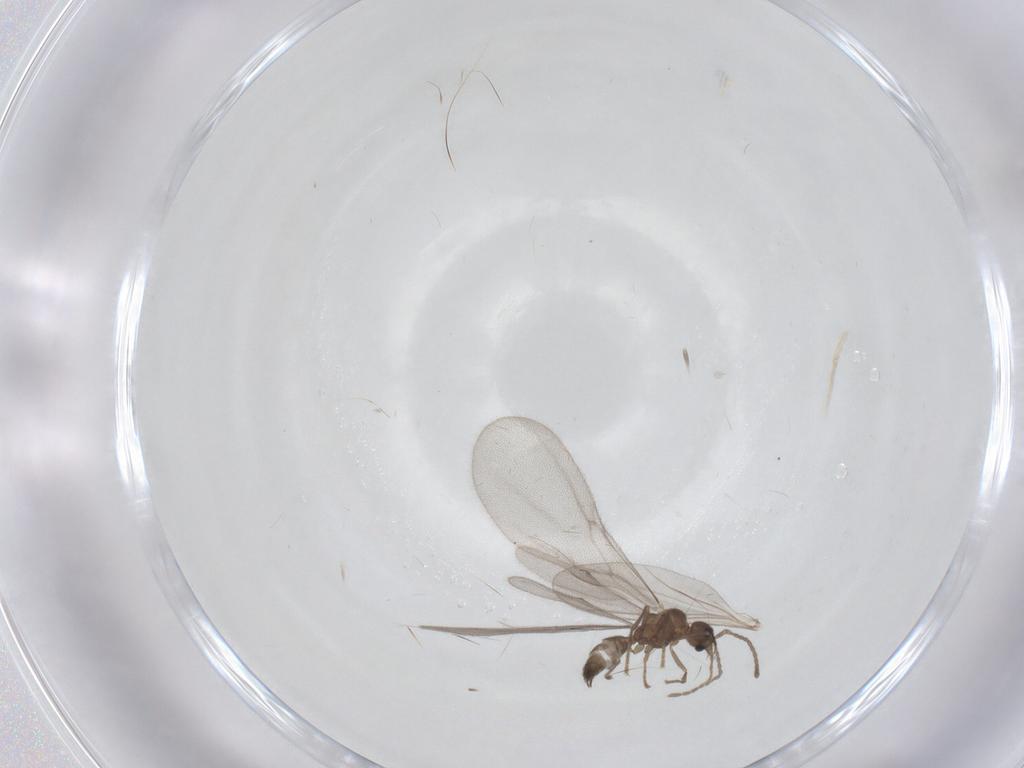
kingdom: Animalia
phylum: Arthropoda
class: Insecta
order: Hymenoptera
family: Formicidae
